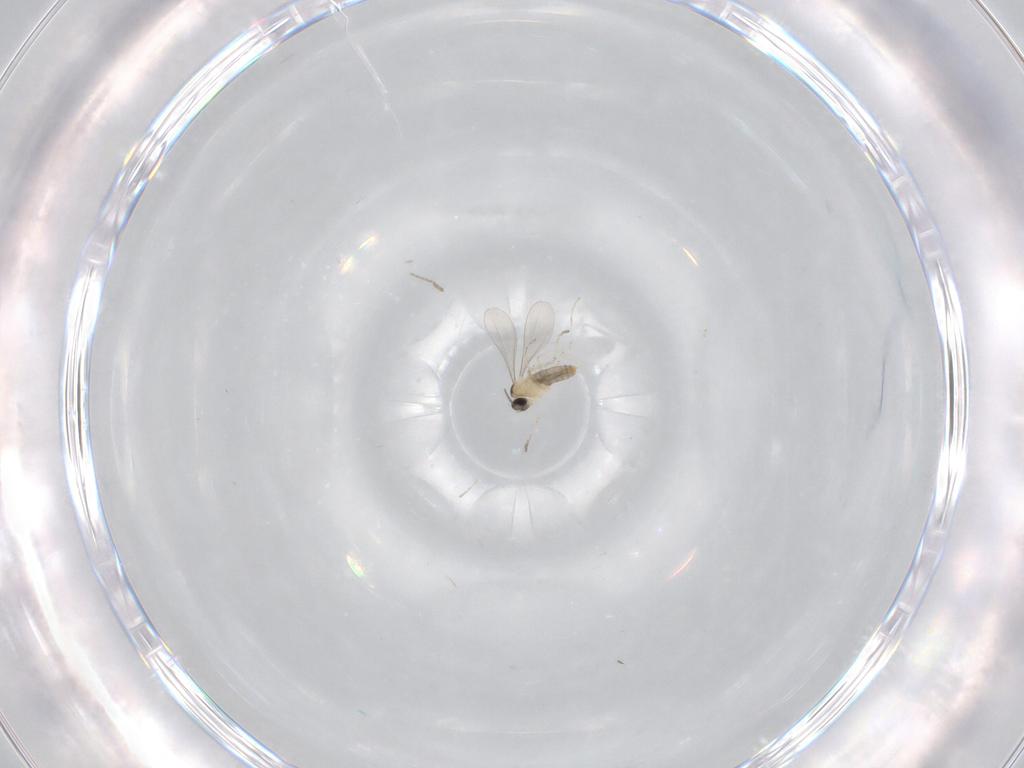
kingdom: Animalia
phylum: Arthropoda
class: Insecta
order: Diptera
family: Cecidomyiidae
